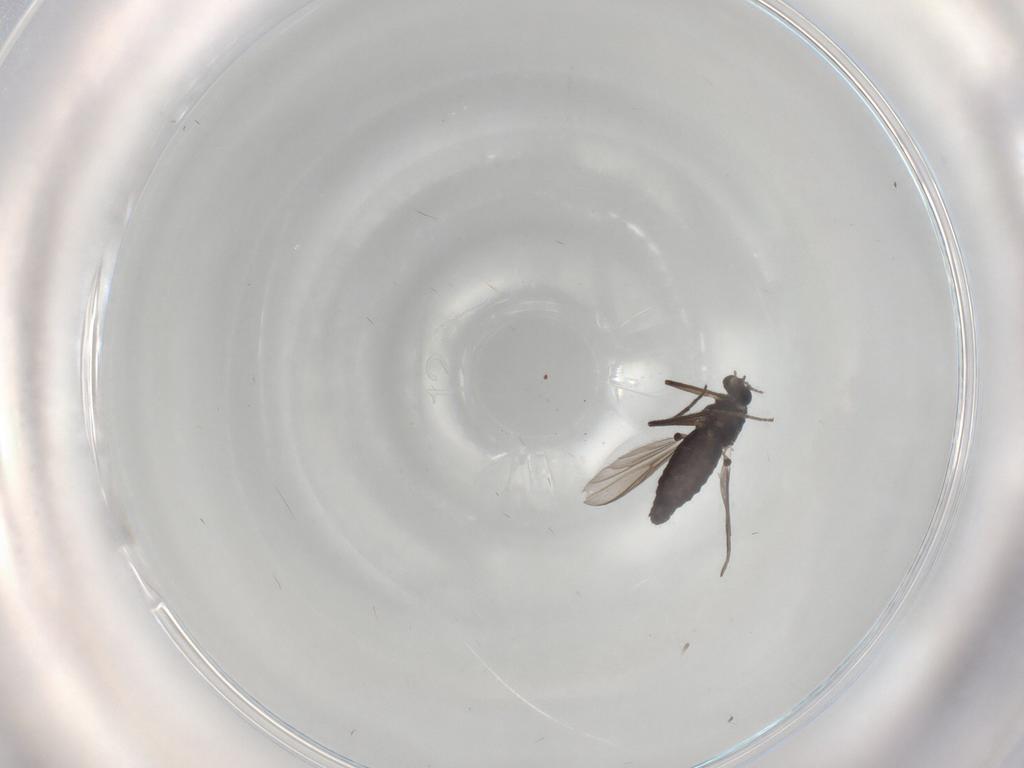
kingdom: Animalia
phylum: Arthropoda
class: Insecta
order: Diptera
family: Limoniidae
